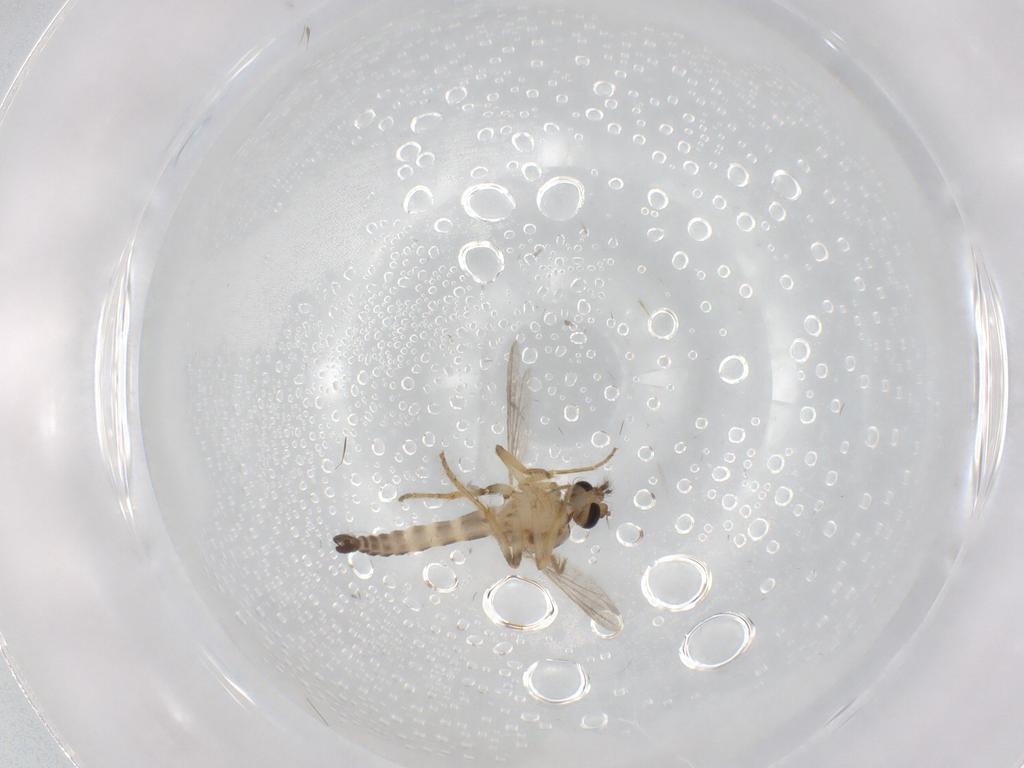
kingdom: Animalia
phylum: Arthropoda
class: Insecta
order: Diptera
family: Ceratopogonidae
